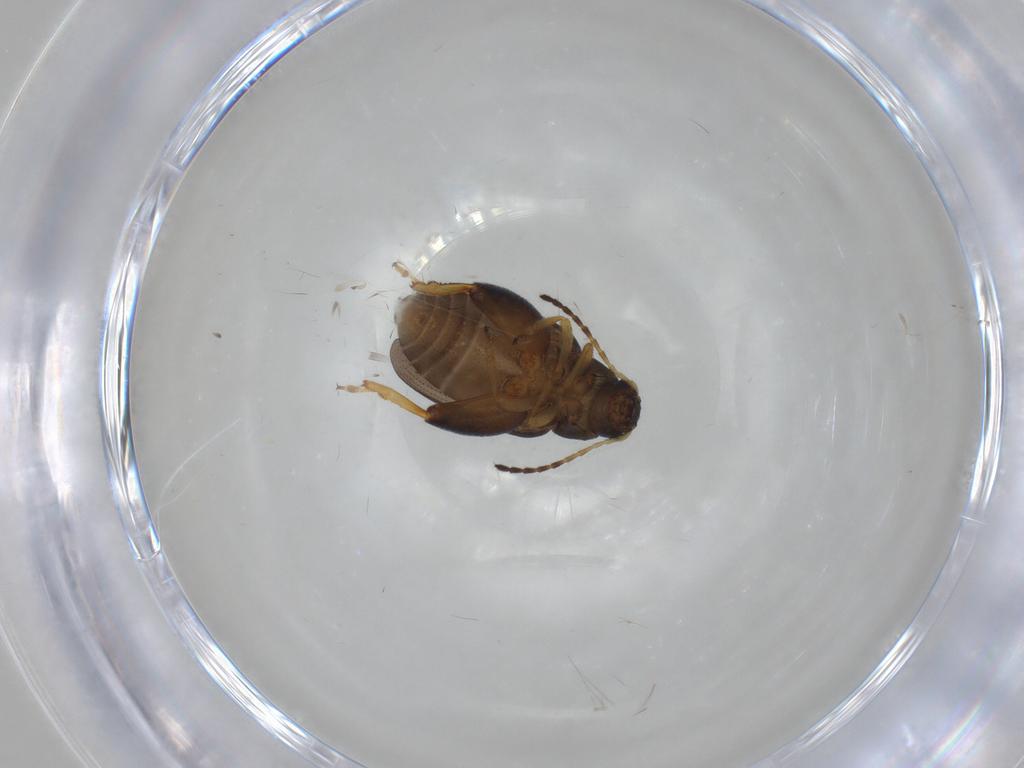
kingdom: Animalia
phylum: Arthropoda
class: Insecta
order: Coleoptera
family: Chrysomelidae
